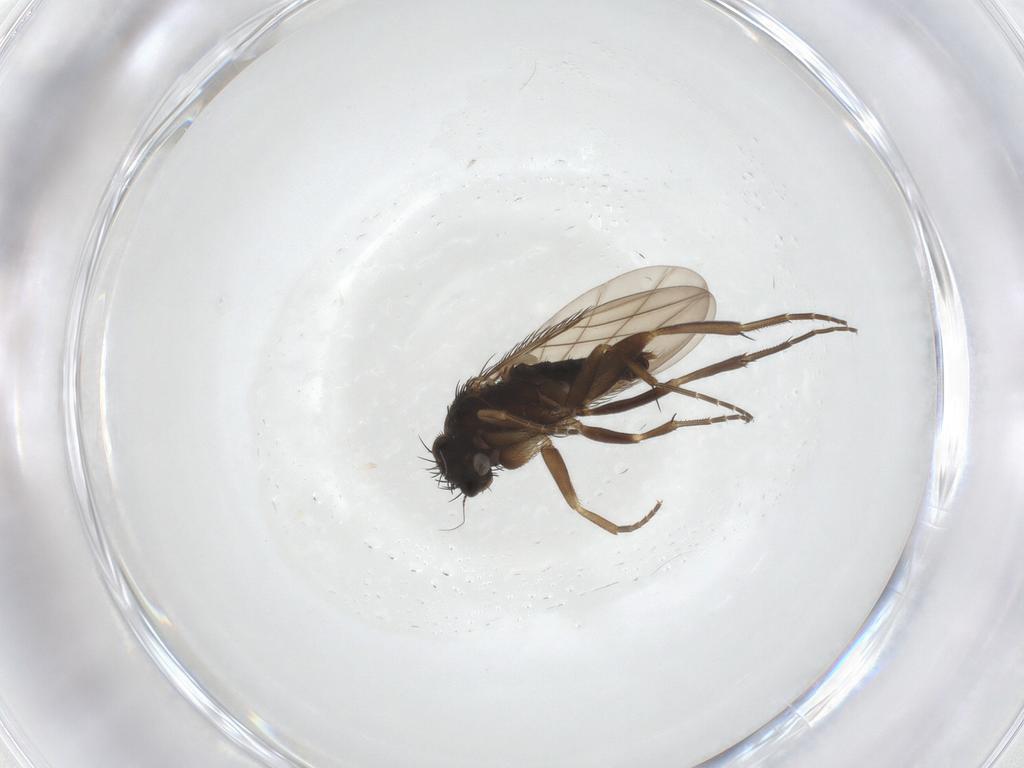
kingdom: Animalia
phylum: Arthropoda
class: Insecta
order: Diptera
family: Phoridae
